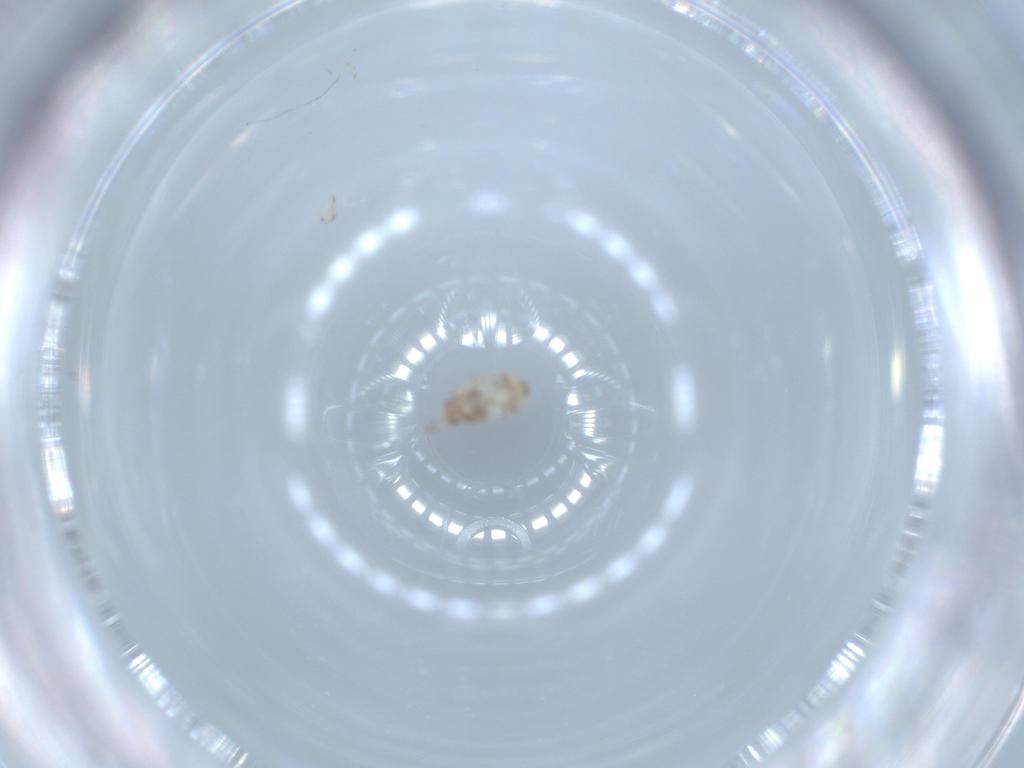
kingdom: Animalia
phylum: Arthropoda
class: Insecta
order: Psocodea
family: Liposcelididae
